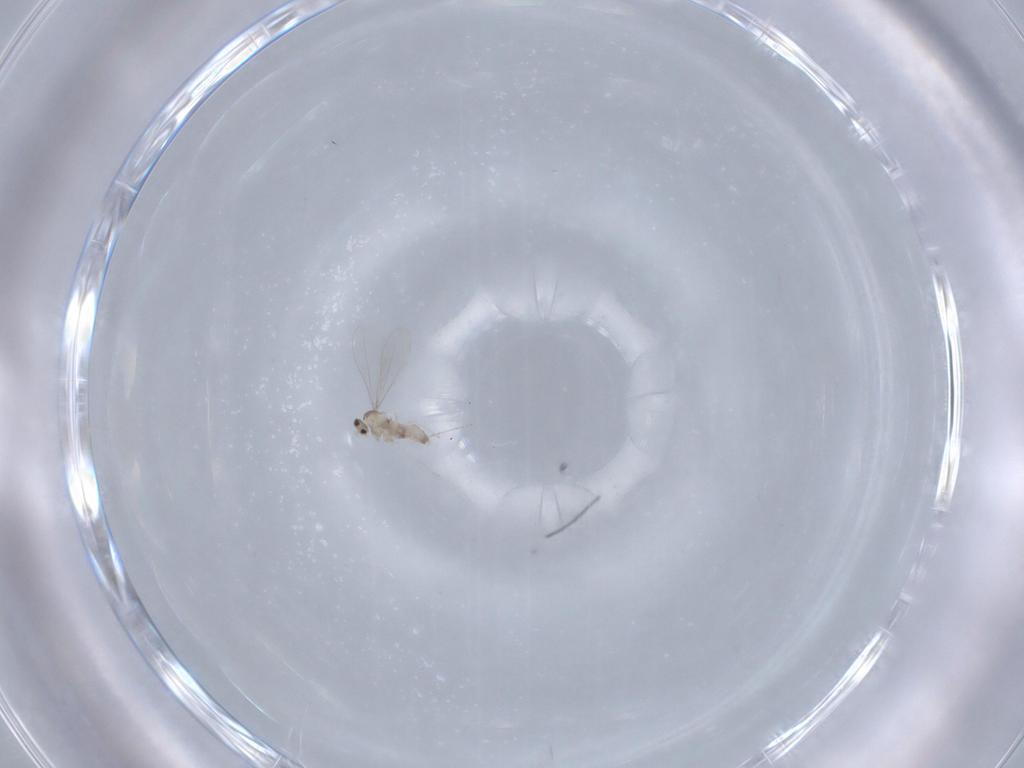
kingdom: Animalia
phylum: Arthropoda
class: Insecta
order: Diptera
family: Cecidomyiidae
